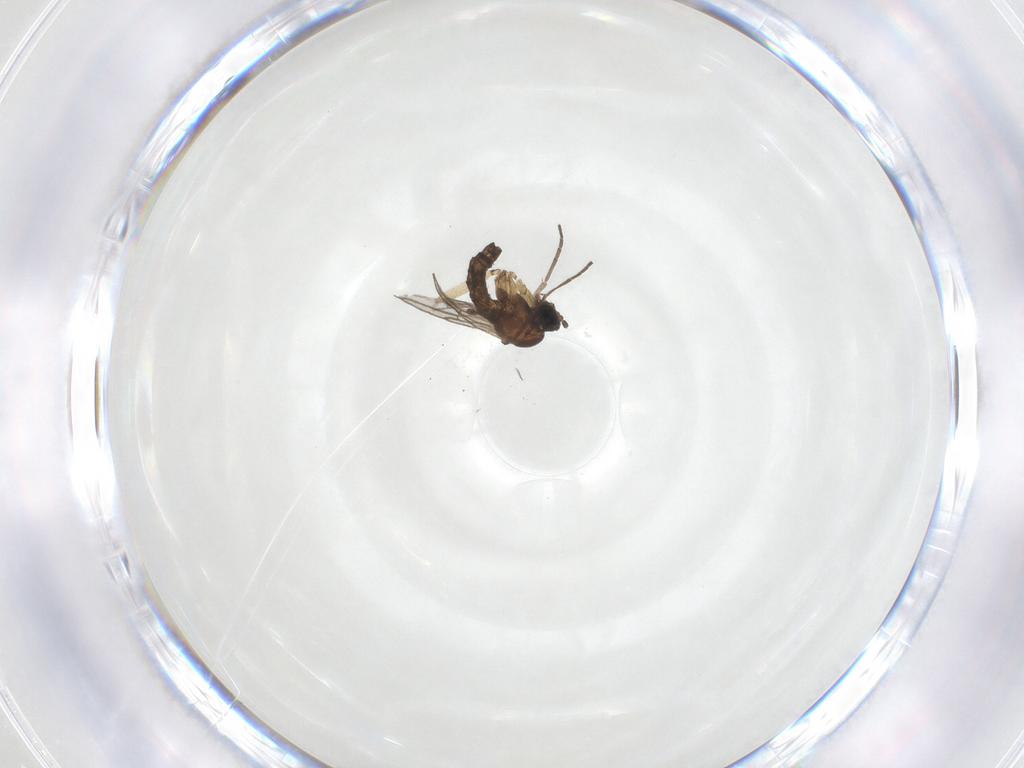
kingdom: Animalia
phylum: Arthropoda
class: Insecta
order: Diptera
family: Sciaridae
